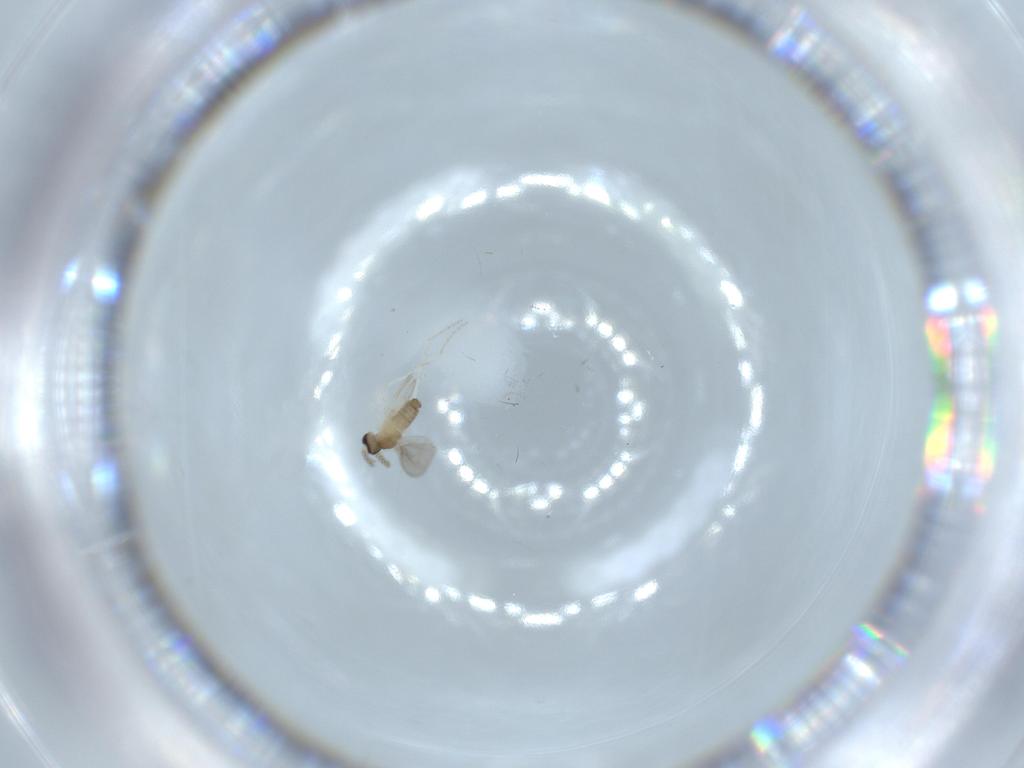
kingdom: Animalia
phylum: Arthropoda
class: Insecta
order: Diptera
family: Cecidomyiidae
